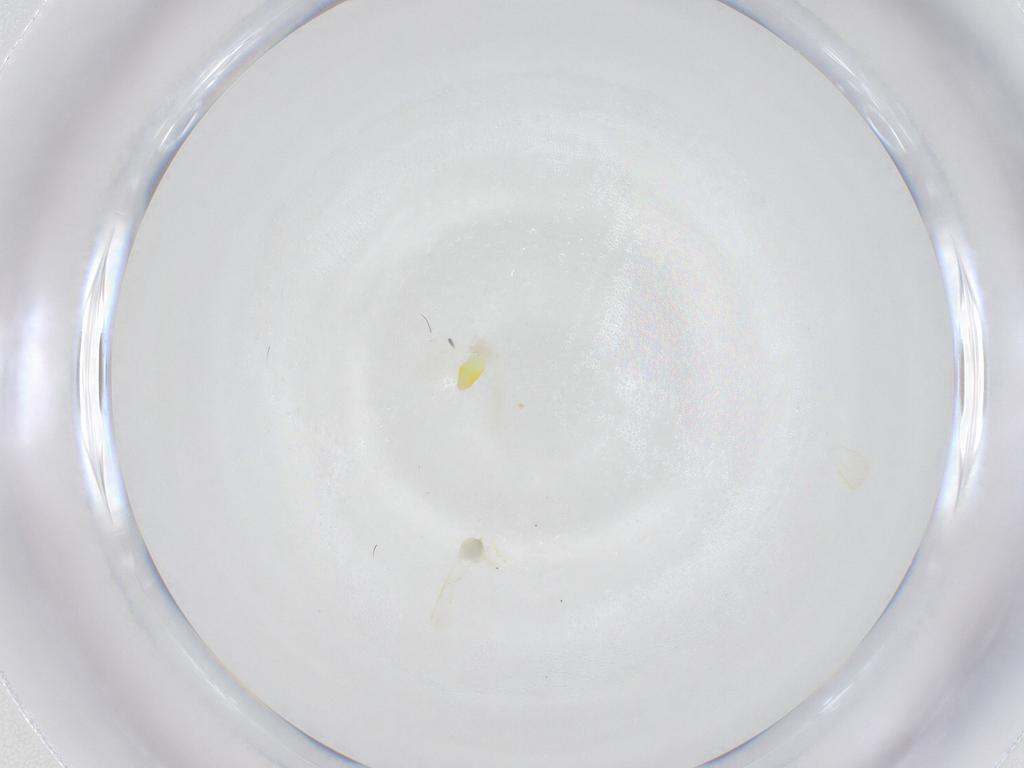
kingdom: Animalia
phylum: Arthropoda
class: Insecta
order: Hemiptera
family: Aleyrodidae
